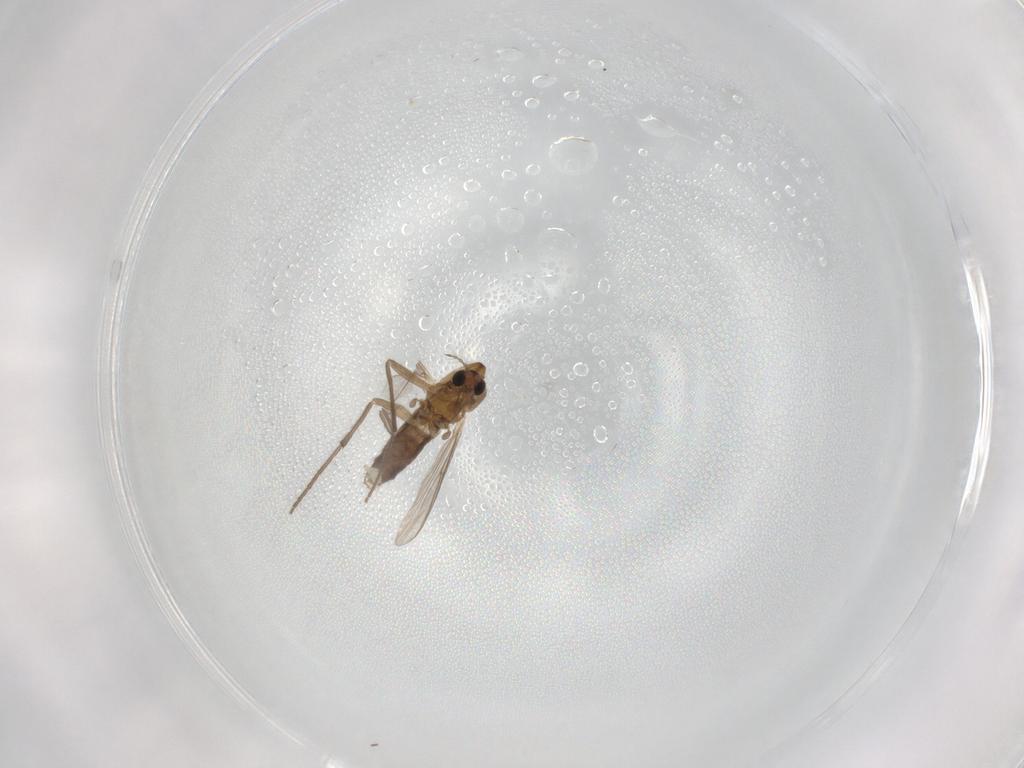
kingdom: Animalia
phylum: Arthropoda
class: Insecta
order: Diptera
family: Chironomidae
